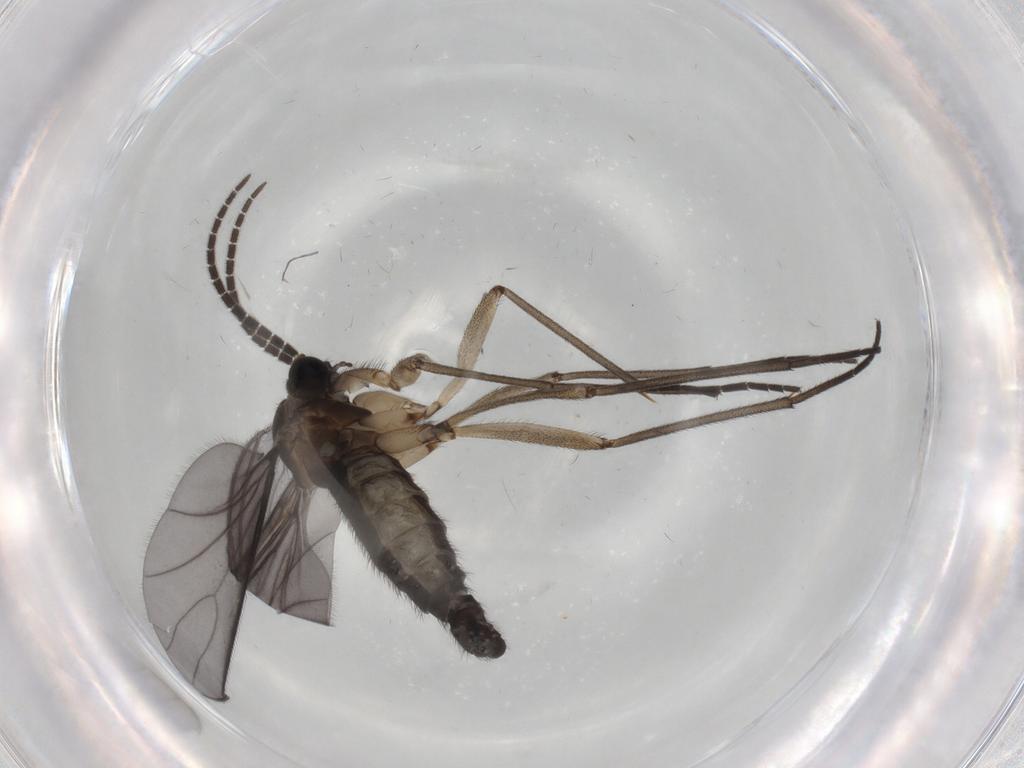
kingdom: Animalia
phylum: Arthropoda
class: Insecta
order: Diptera
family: Sciaridae
